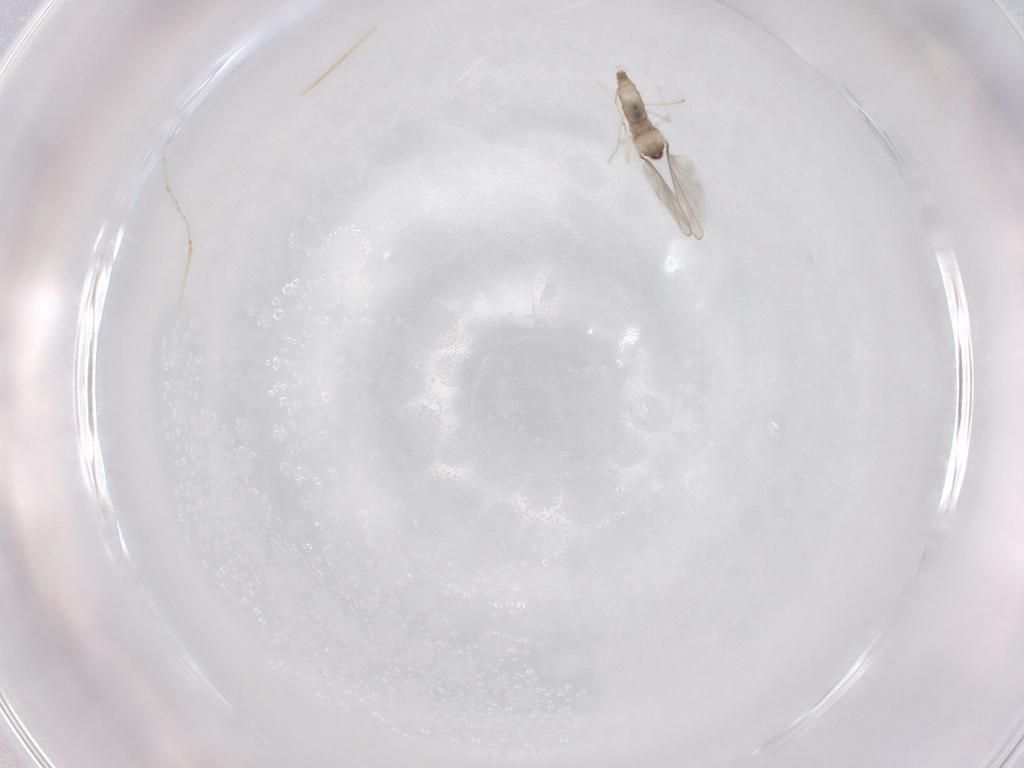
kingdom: Animalia
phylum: Arthropoda
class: Insecta
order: Diptera
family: Cecidomyiidae
